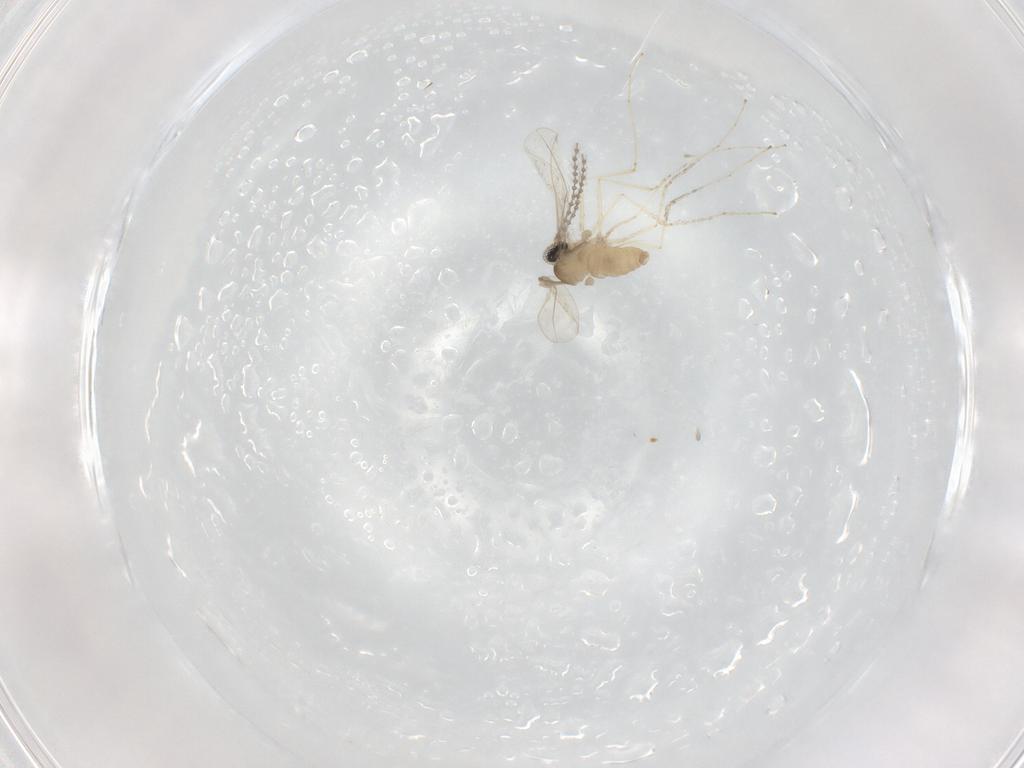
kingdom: Animalia
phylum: Arthropoda
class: Insecta
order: Diptera
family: Cecidomyiidae
